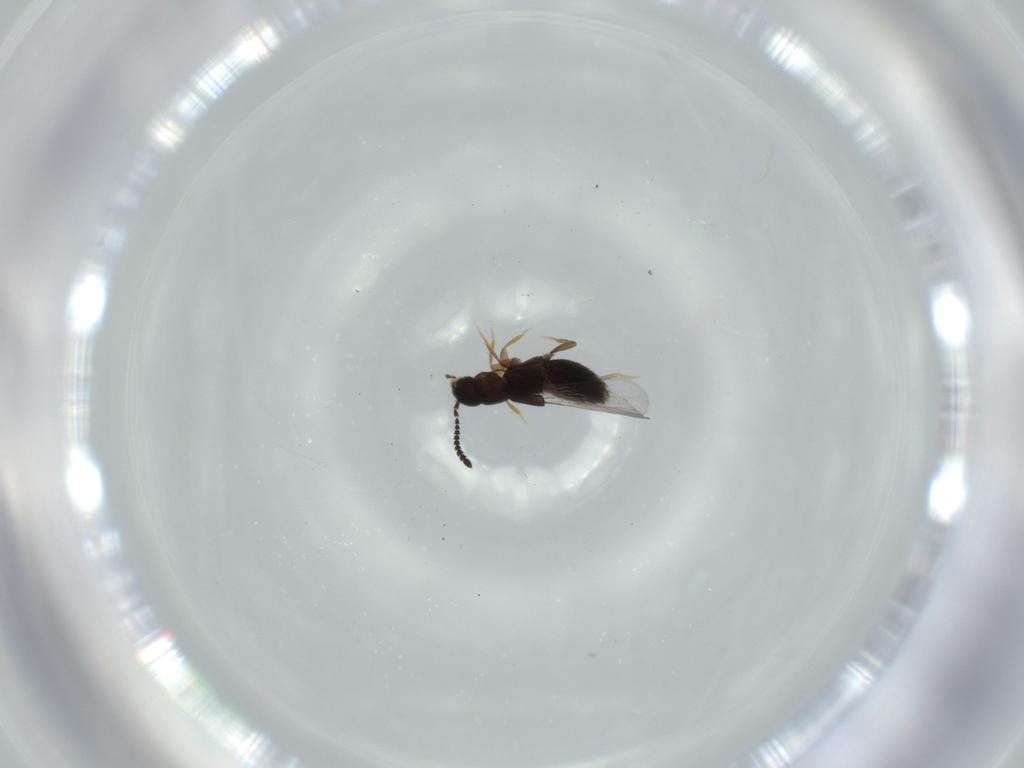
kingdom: Animalia
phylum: Arthropoda
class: Insecta
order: Coleoptera
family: Staphylinidae
